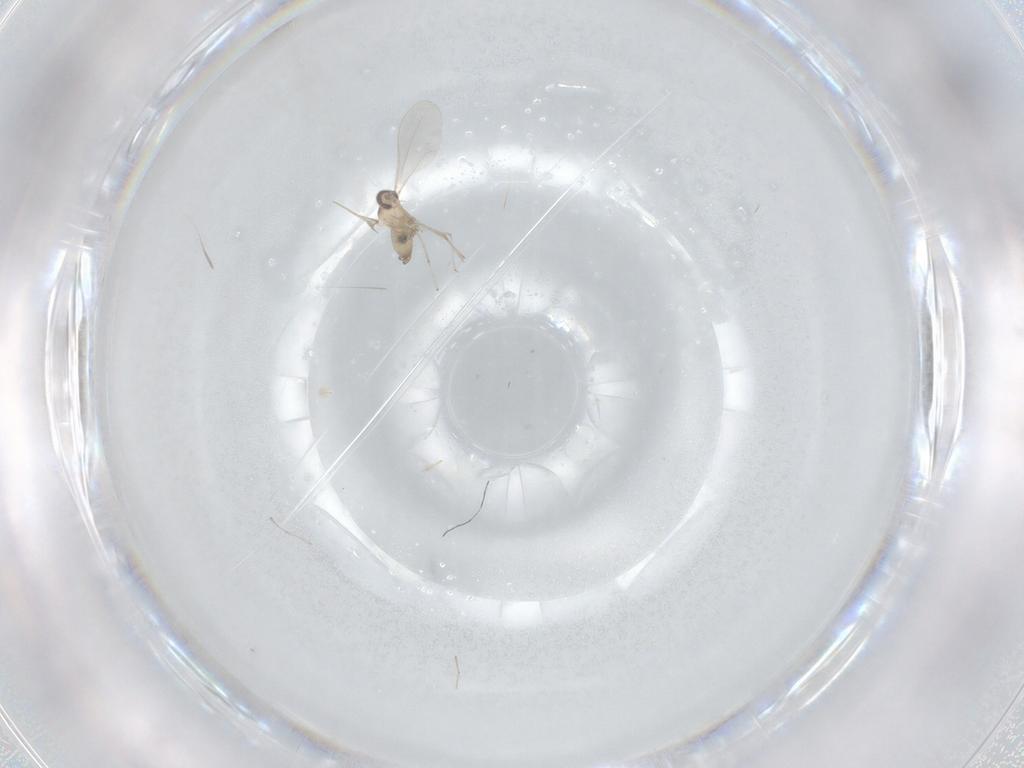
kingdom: Animalia
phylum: Arthropoda
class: Insecta
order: Diptera
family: Cecidomyiidae
